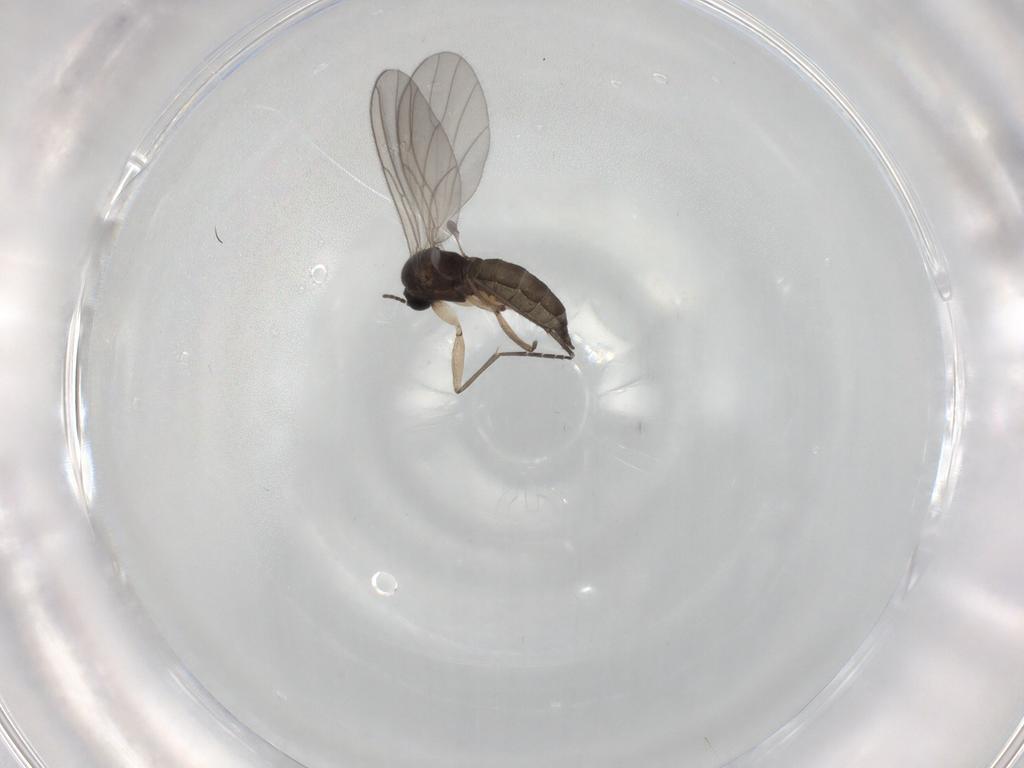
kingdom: Animalia
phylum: Arthropoda
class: Insecta
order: Diptera
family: Sciaridae
